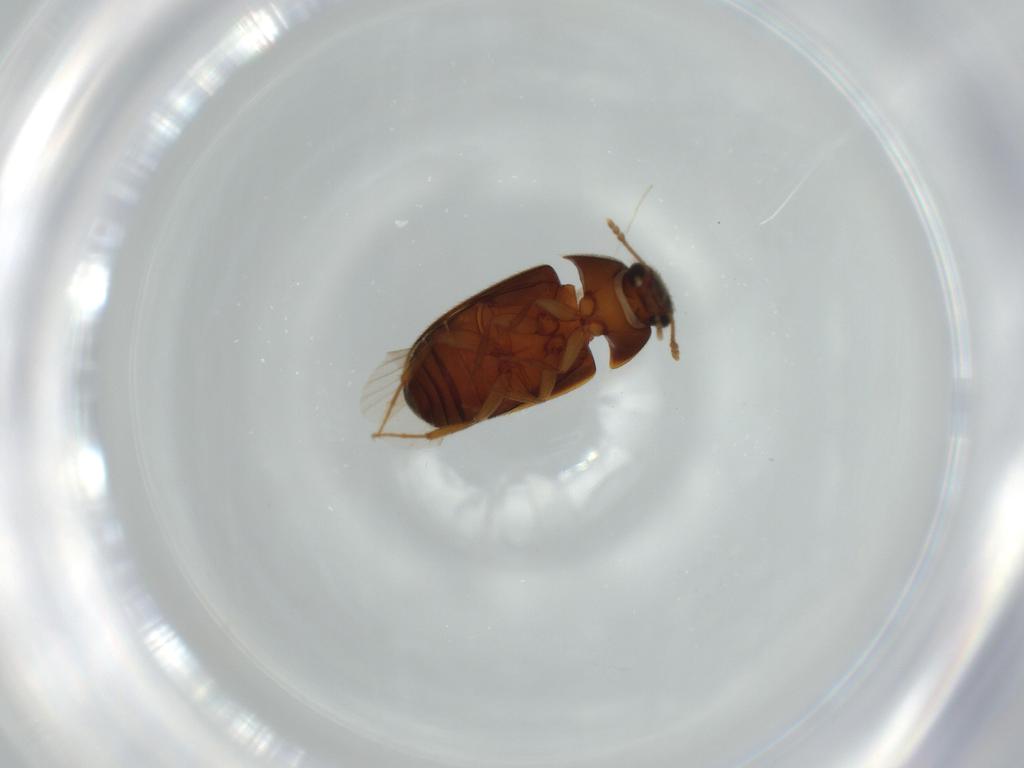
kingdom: Animalia
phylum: Arthropoda
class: Insecta
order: Coleoptera
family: Mycetophagidae
